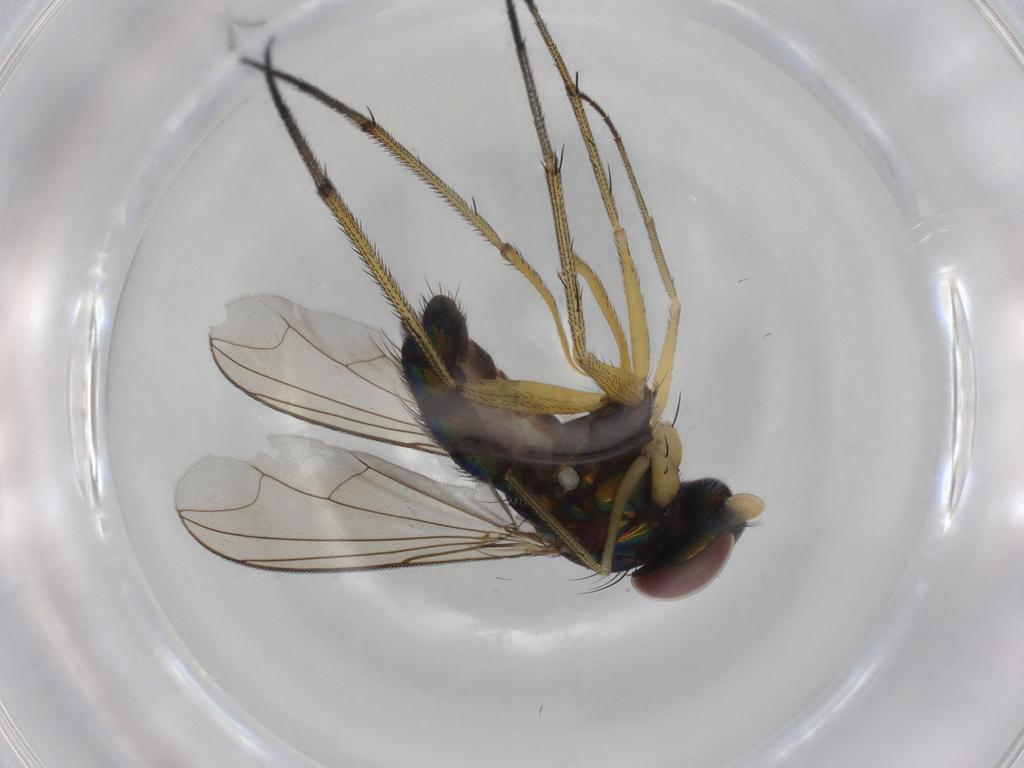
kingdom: Animalia
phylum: Arthropoda
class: Insecta
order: Diptera
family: Dolichopodidae
